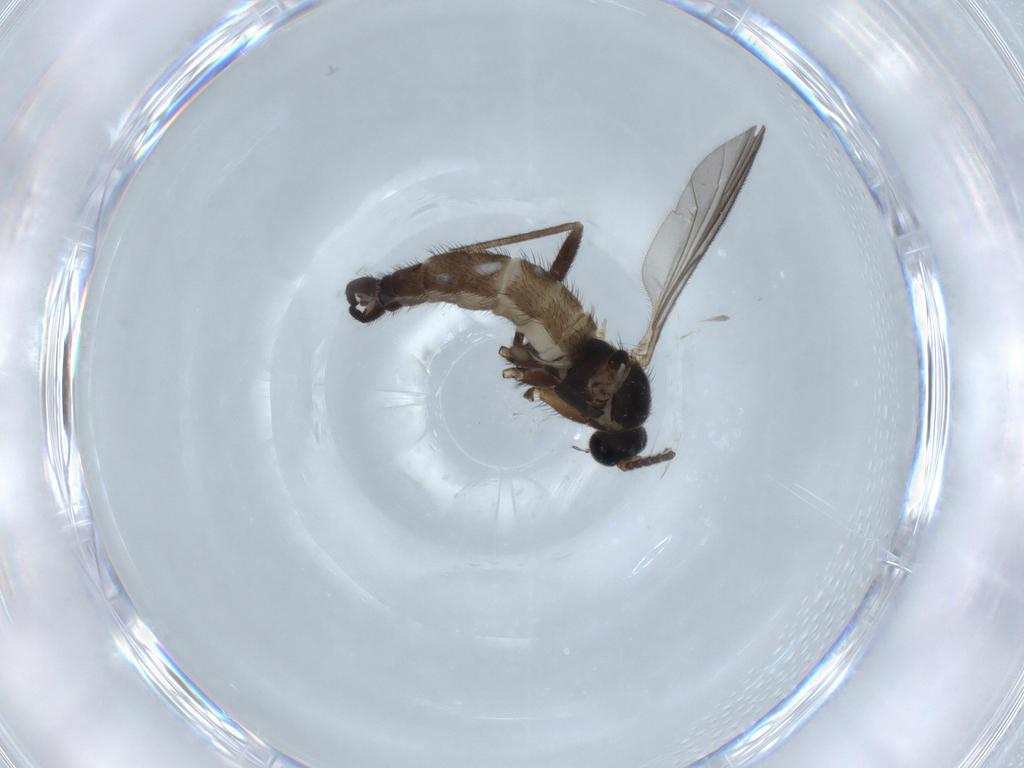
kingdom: Animalia
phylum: Arthropoda
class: Insecta
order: Diptera
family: Sciaridae
